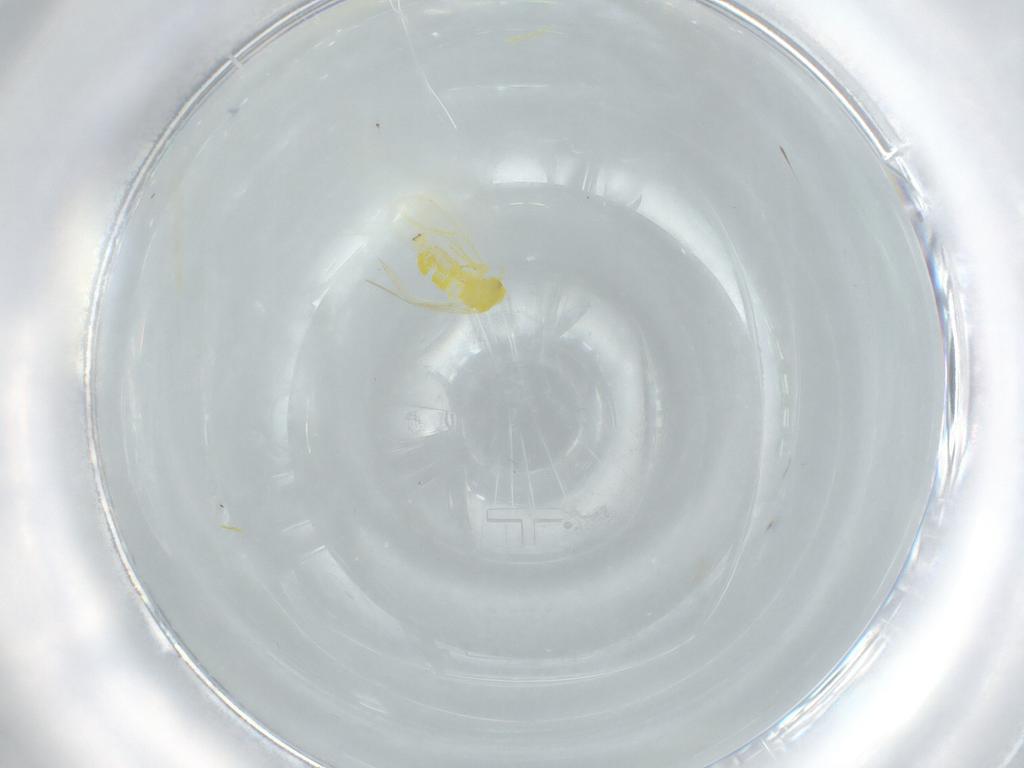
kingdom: Animalia
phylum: Arthropoda
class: Insecta
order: Hemiptera
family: Aleyrodidae
